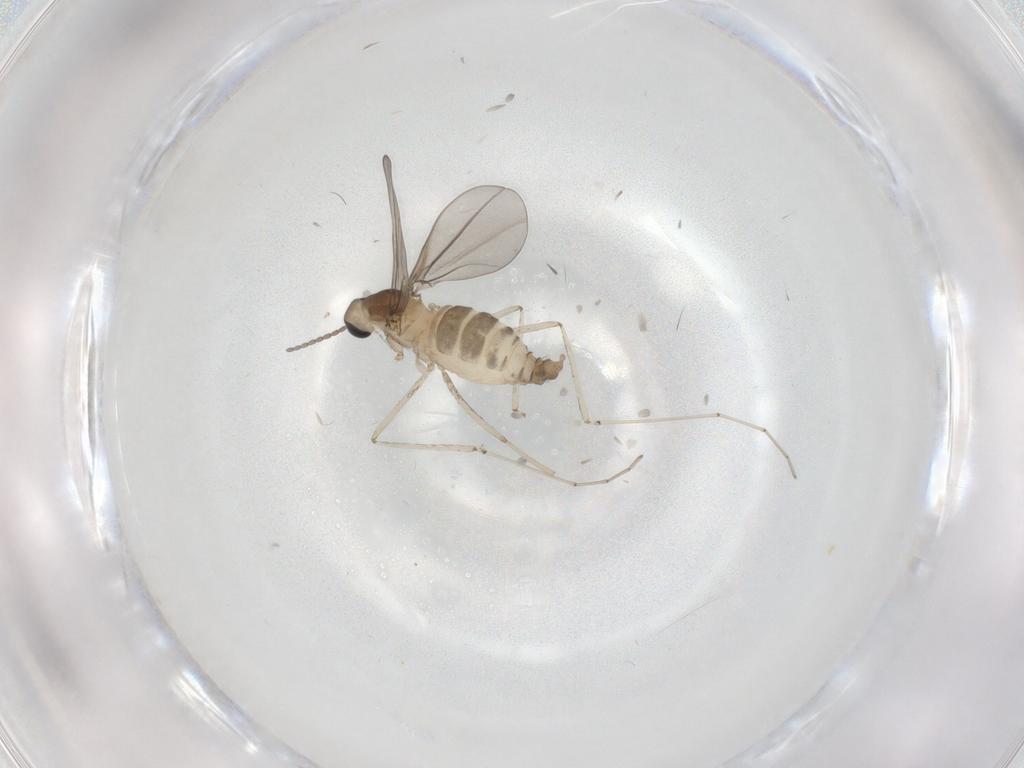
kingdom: Animalia
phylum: Arthropoda
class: Insecta
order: Diptera
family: Cecidomyiidae
